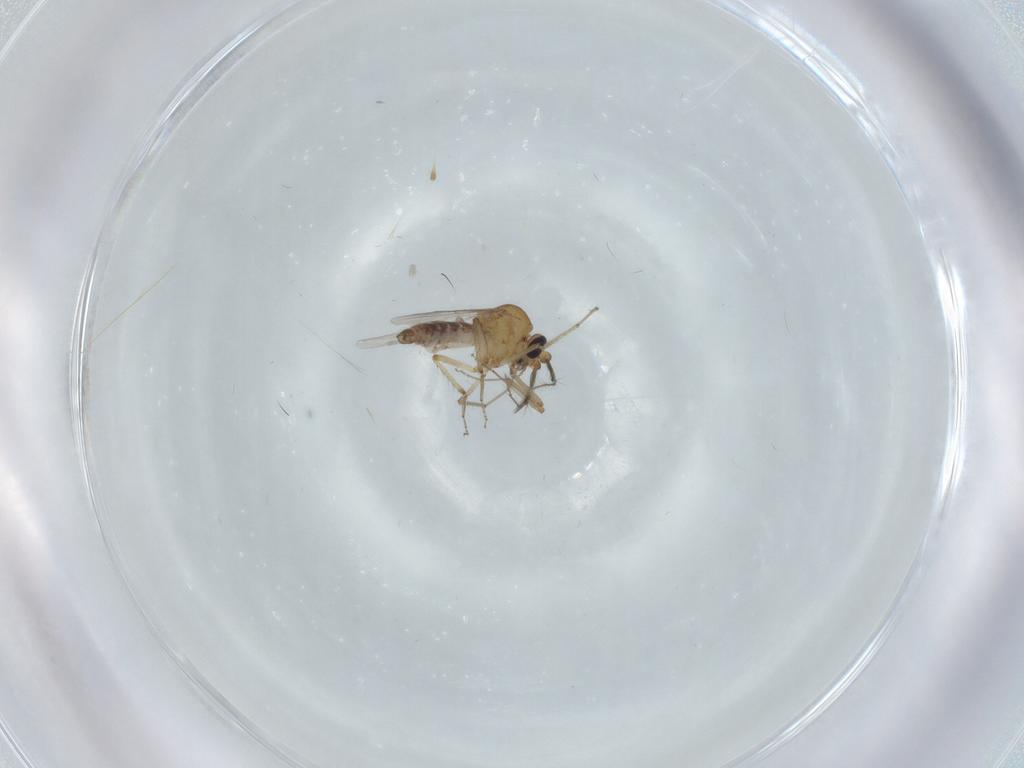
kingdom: Animalia
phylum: Arthropoda
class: Insecta
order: Diptera
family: Ceratopogonidae
